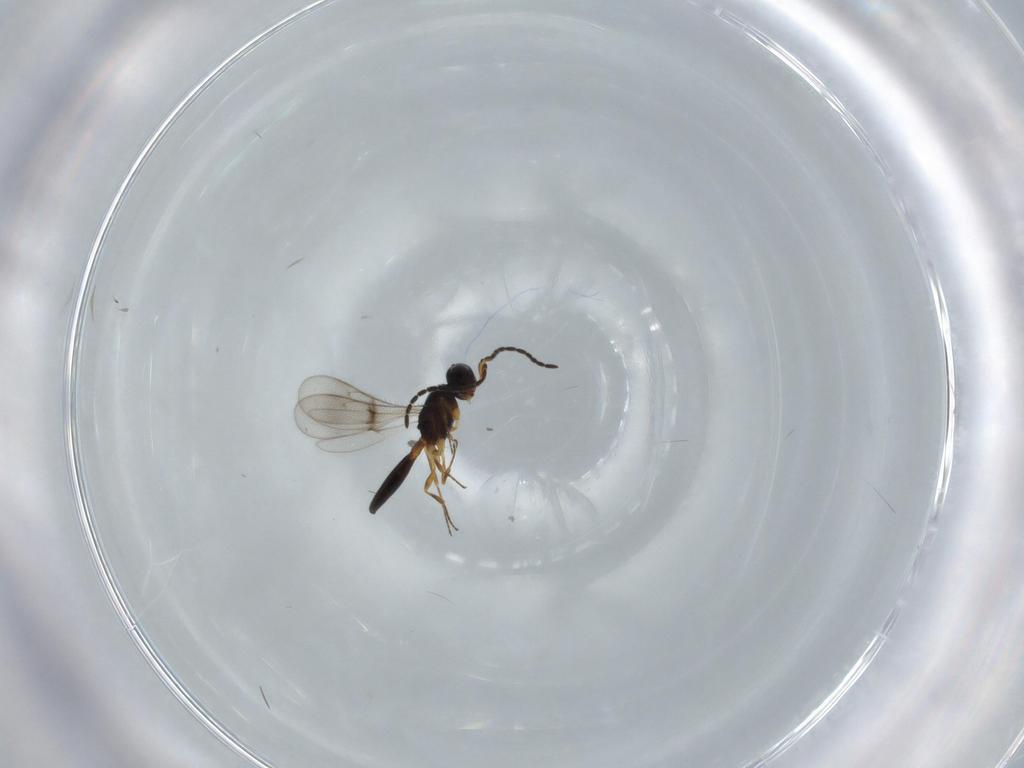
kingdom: Animalia
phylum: Arthropoda
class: Insecta
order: Hymenoptera
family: Scelionidae
